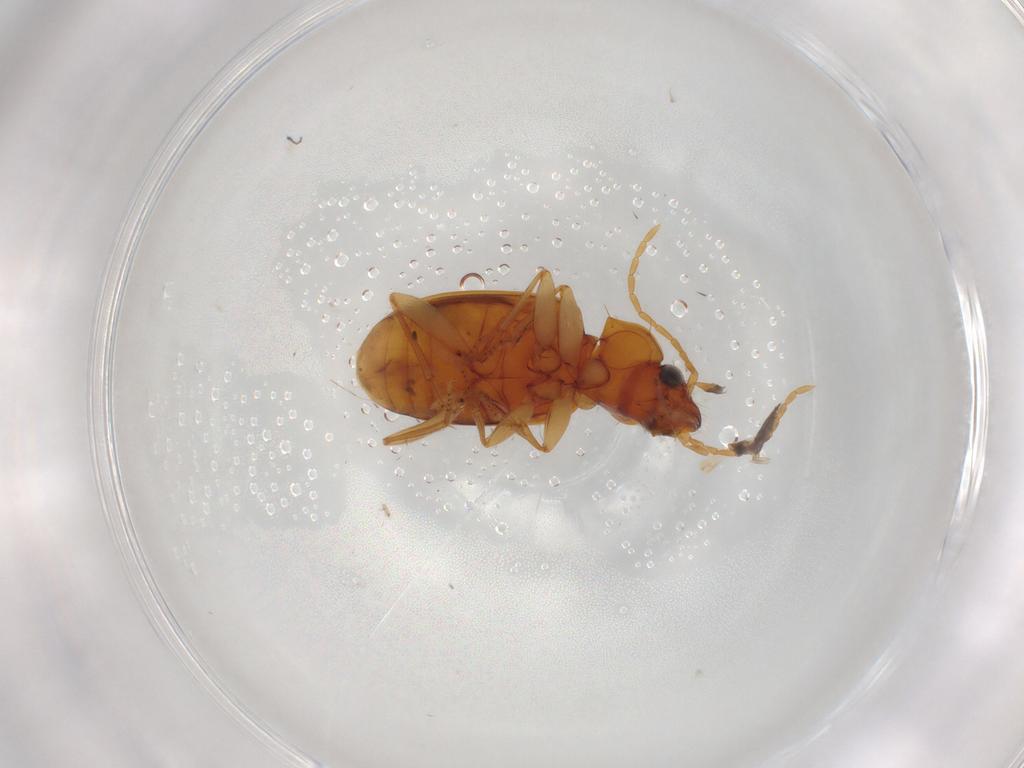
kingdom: Animalia
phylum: Arthropoda
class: Insecta
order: Coleoptera
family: Carabidae
